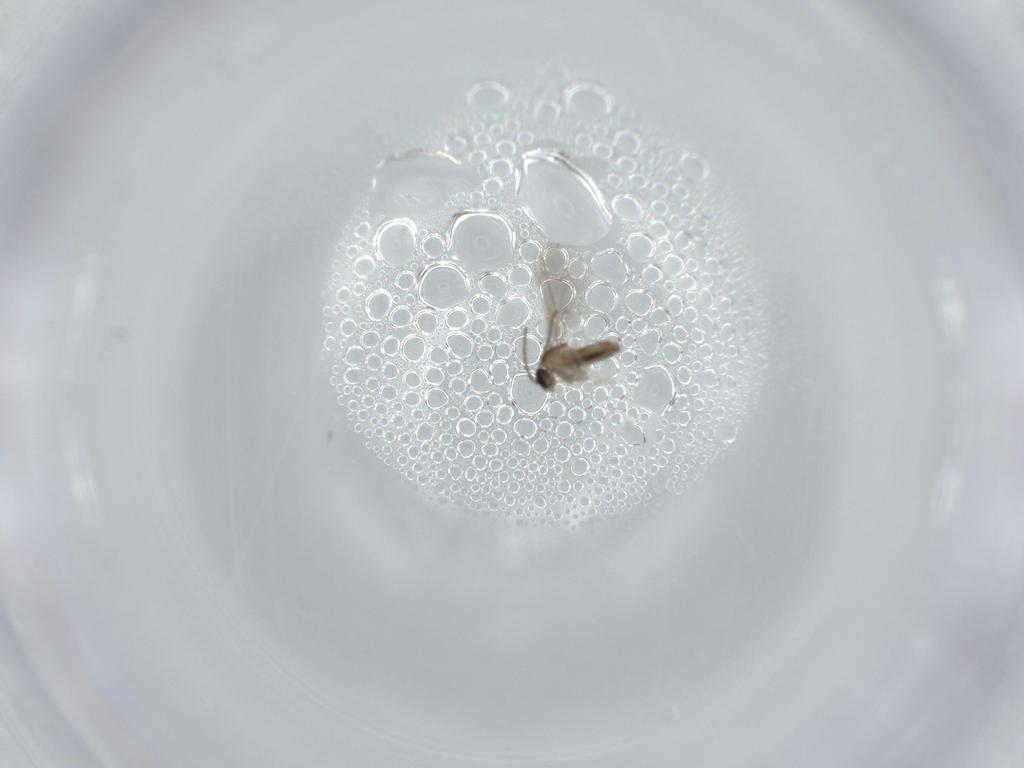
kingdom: Animalia
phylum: Arthropoda
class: Insecta
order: Diptera
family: Cecidomyiidae
